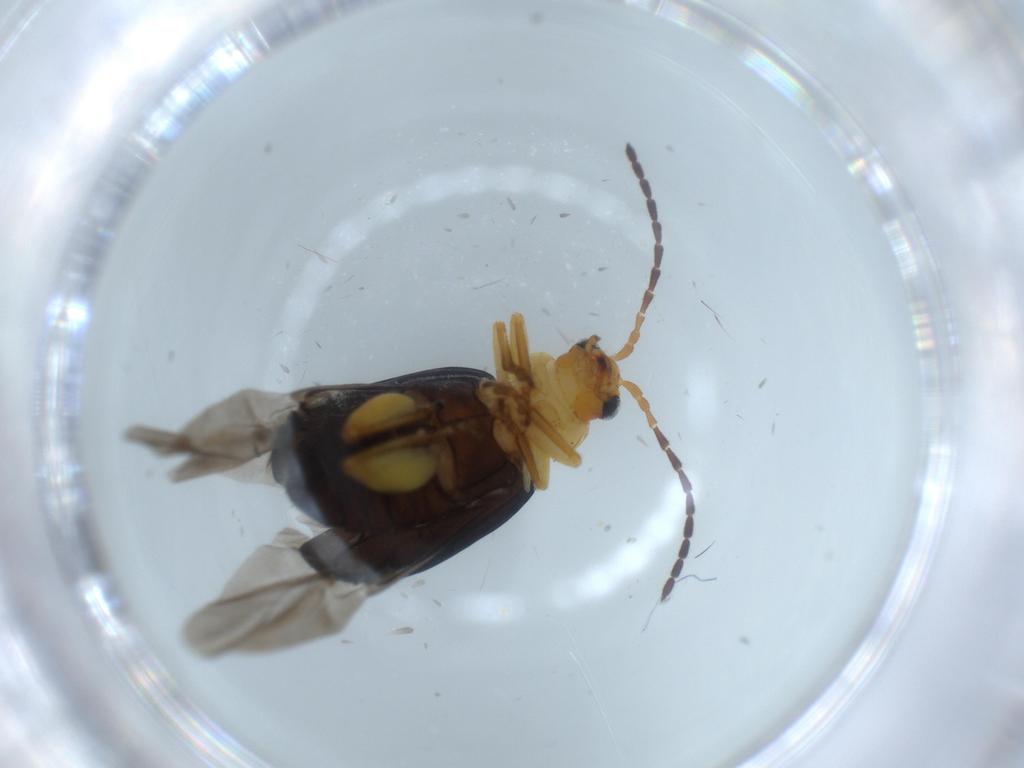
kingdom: Animalia
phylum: Arthropoda
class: Insecta
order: Coleoptera
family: Chrysomelidae
